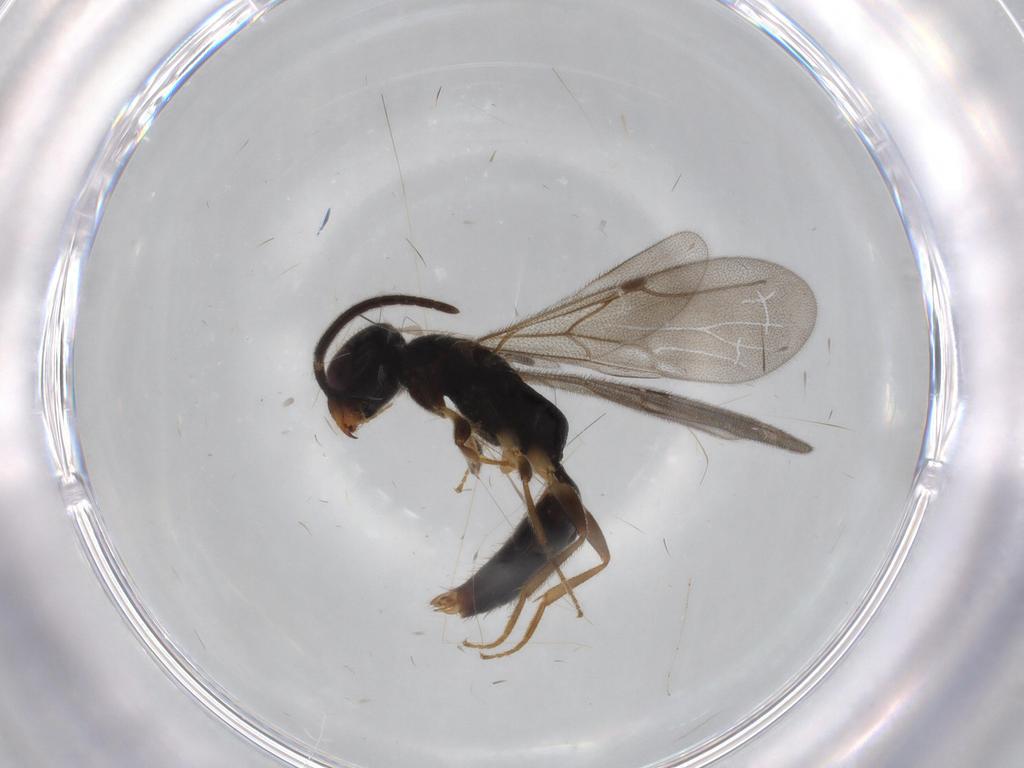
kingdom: Animalia
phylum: Arthropoda
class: Insecta
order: Hymenoptera
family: Bethylidae
